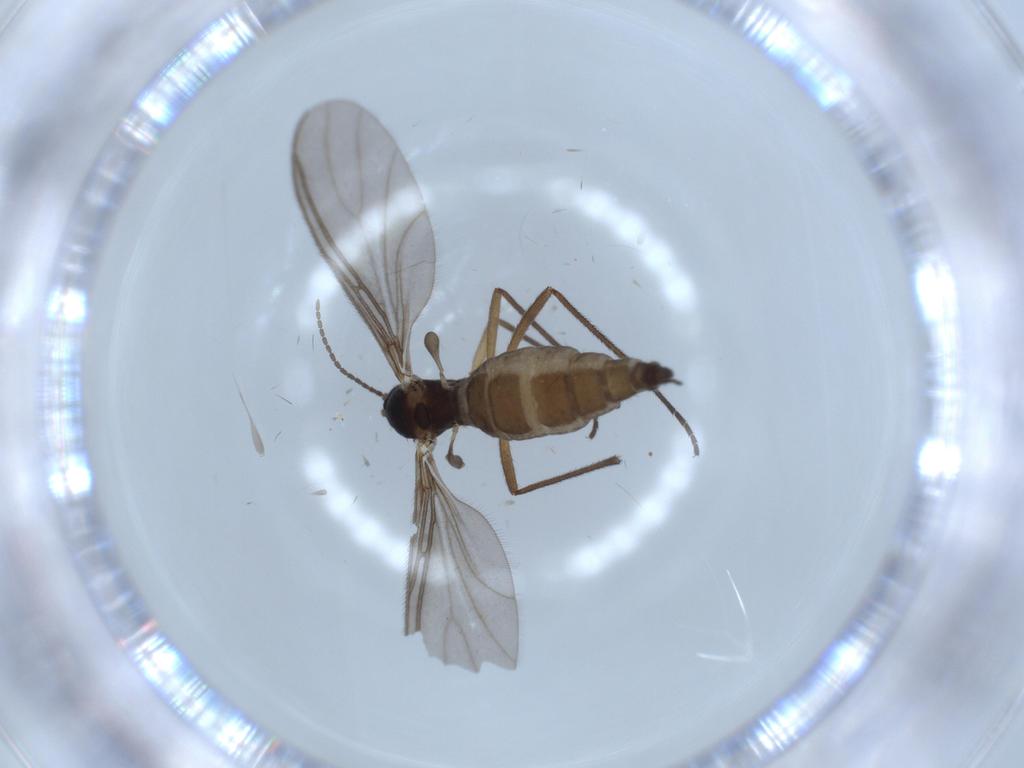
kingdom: Animalia
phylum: Arthropoda
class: Insecta
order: Diptera
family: Sciaridae
